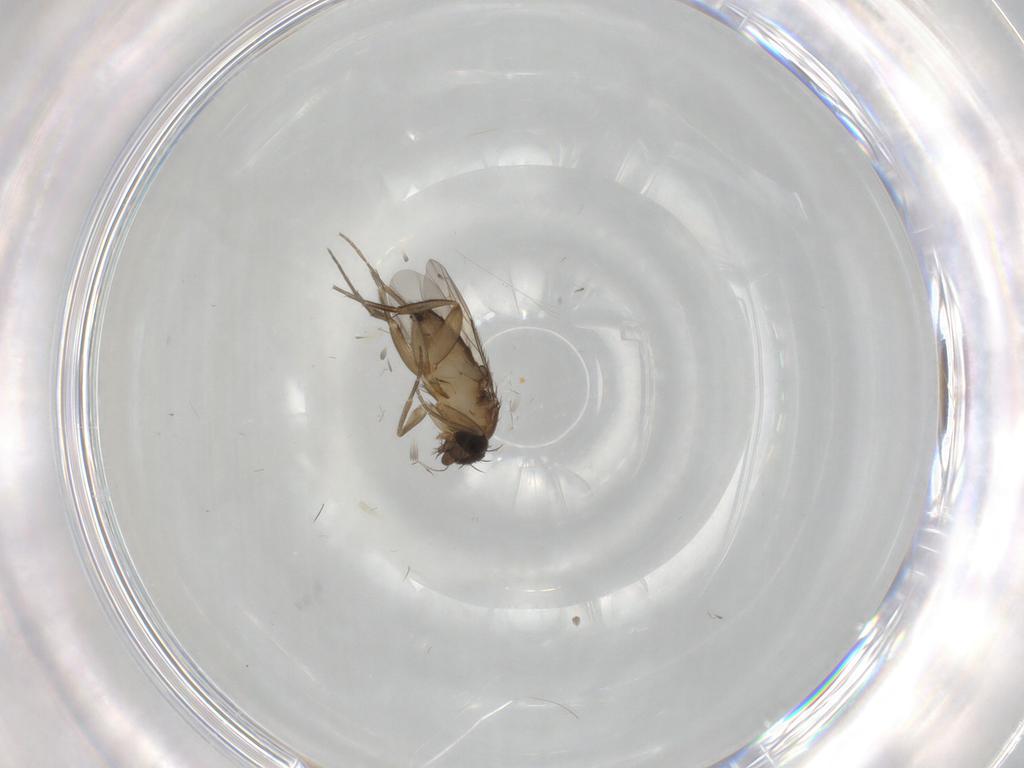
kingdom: Animalia
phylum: Arthropoda
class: Insecta
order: Diptera
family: Phoridae
